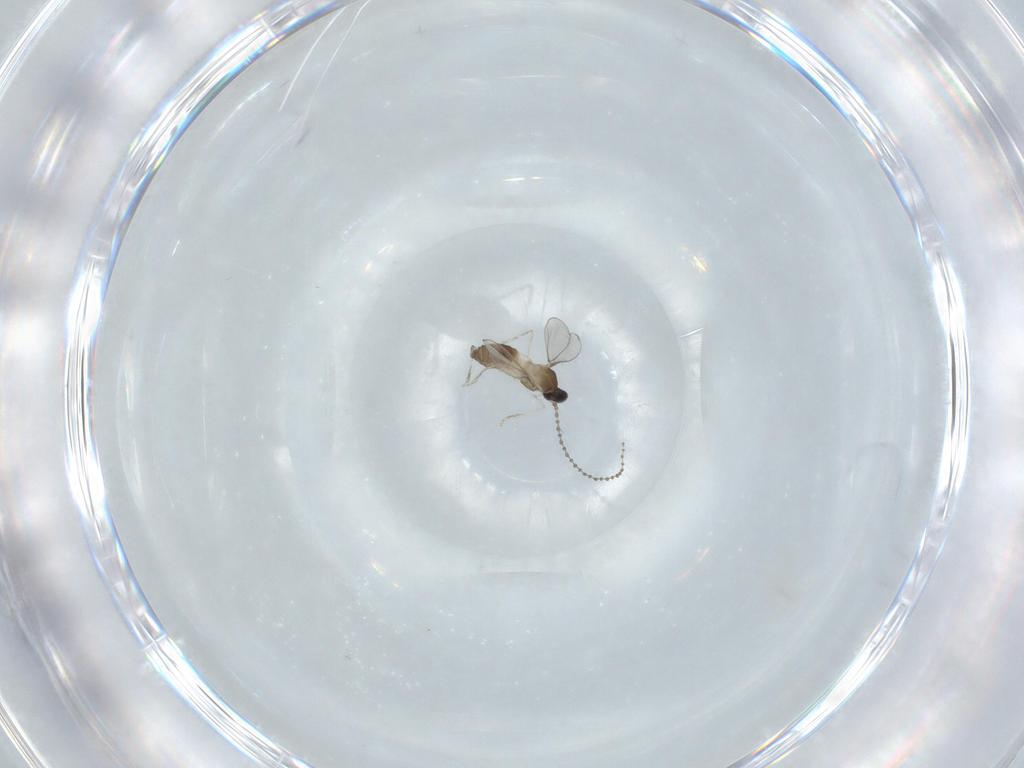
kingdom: Animalia
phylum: Arthropoda
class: Insecta
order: Diptera
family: Cecidomyiidae
